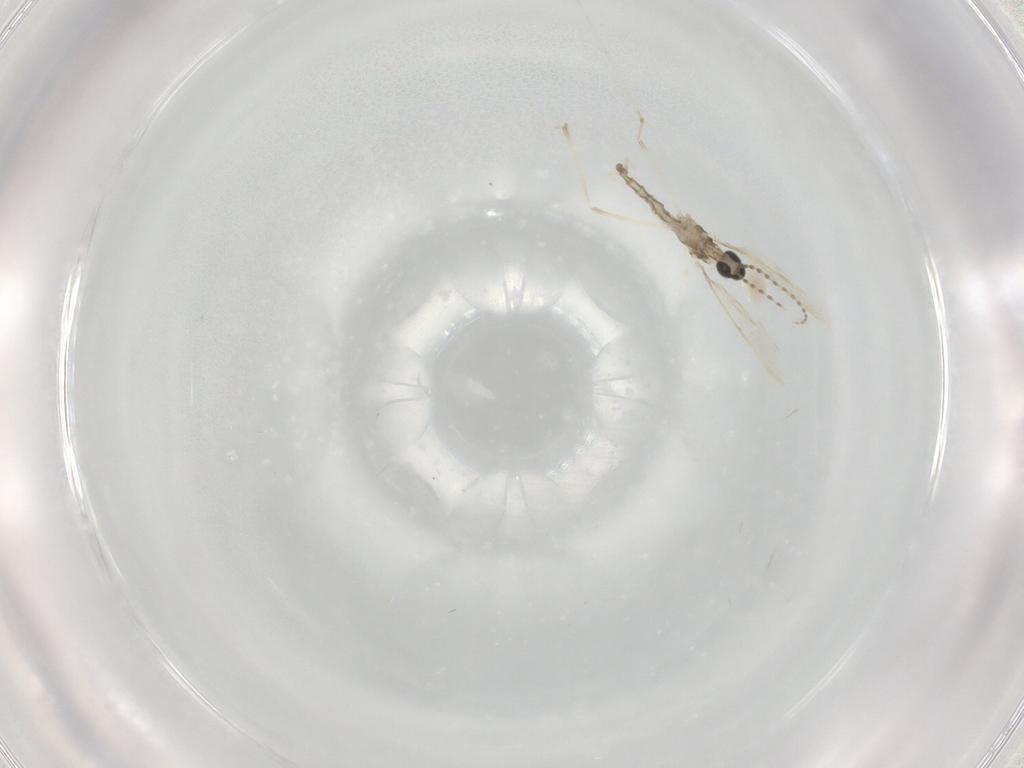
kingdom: Animalia
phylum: Arthropoda
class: Insecta
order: Diptera
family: Cecidomyiidae
